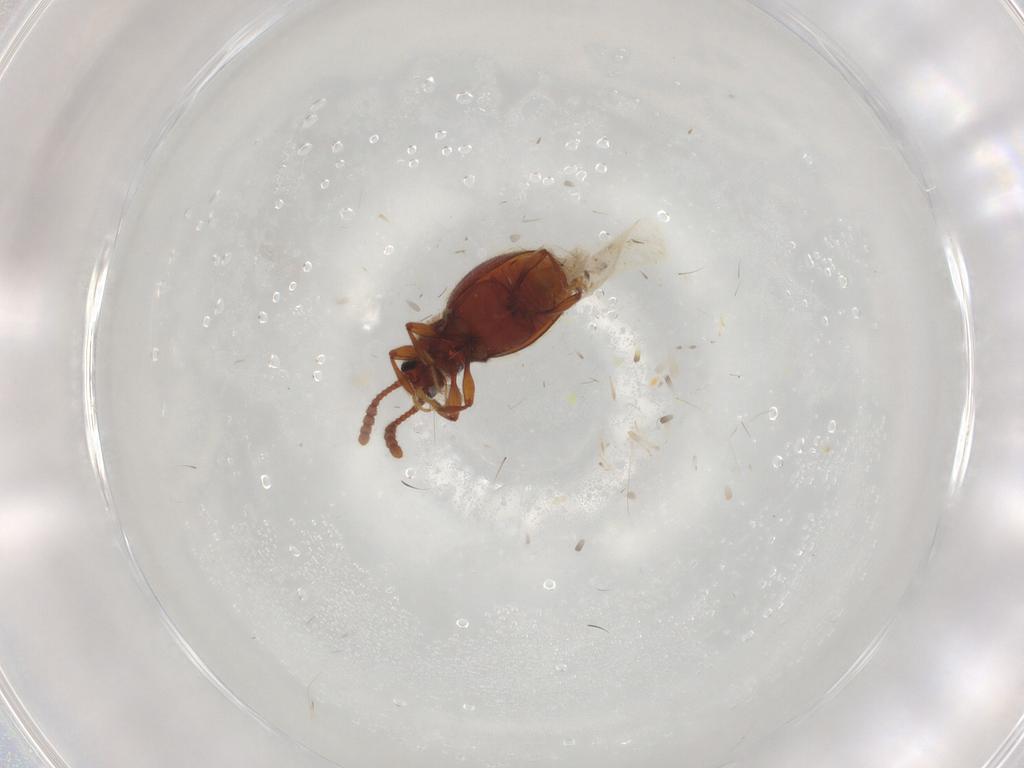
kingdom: Animalia
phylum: Arthropoda
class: Insecta
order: Coleoptera
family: Staphylinidae
